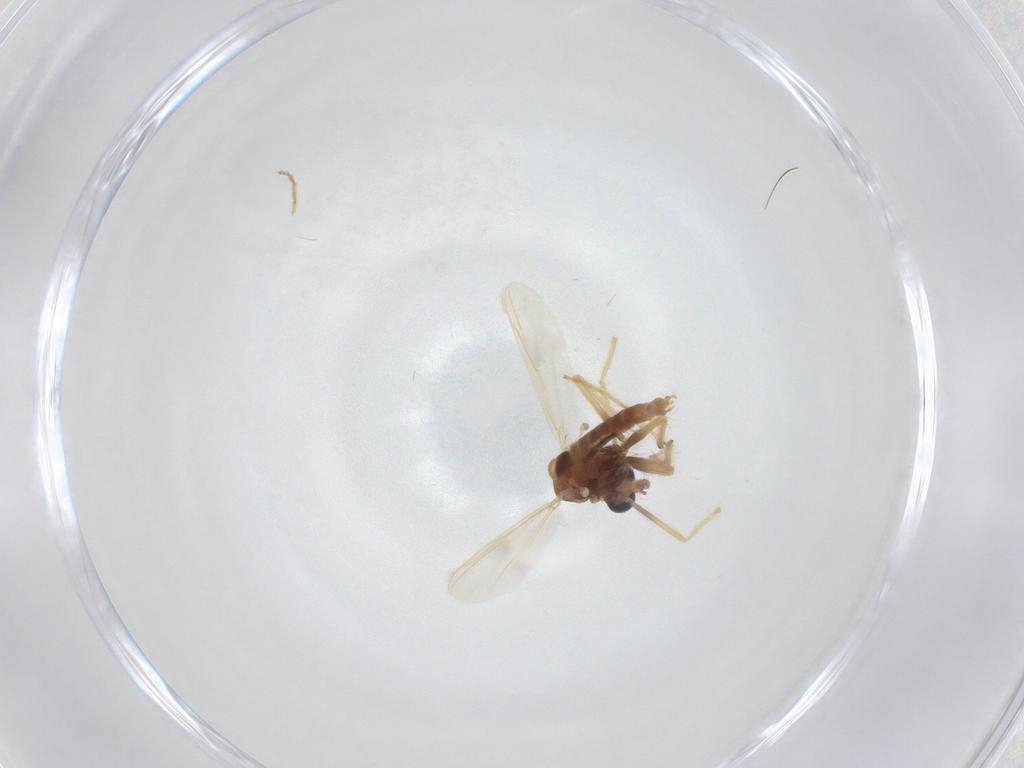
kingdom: Animalia
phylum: Arthropoda
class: Insecta
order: Diptera
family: Chironomidae
